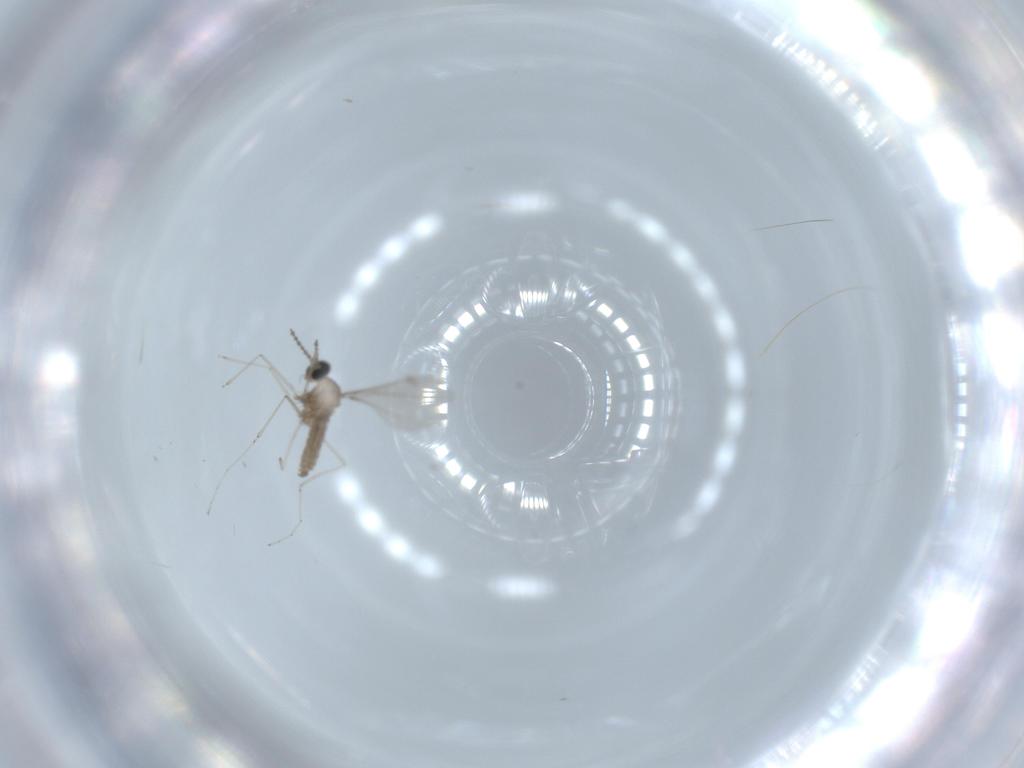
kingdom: Animalia
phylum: Arthropoda
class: Insecta
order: Diptera
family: Cecidomyiidae
